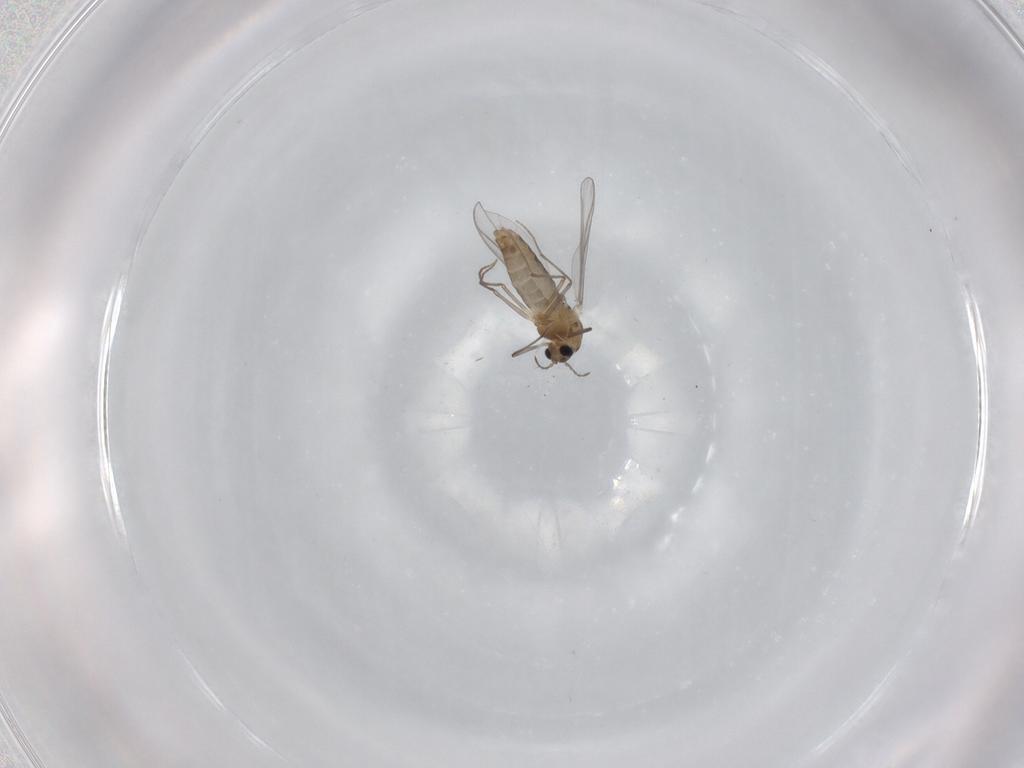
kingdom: Animalia
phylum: Arthropoda
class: Insecta
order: Diptera
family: Chironomidae
